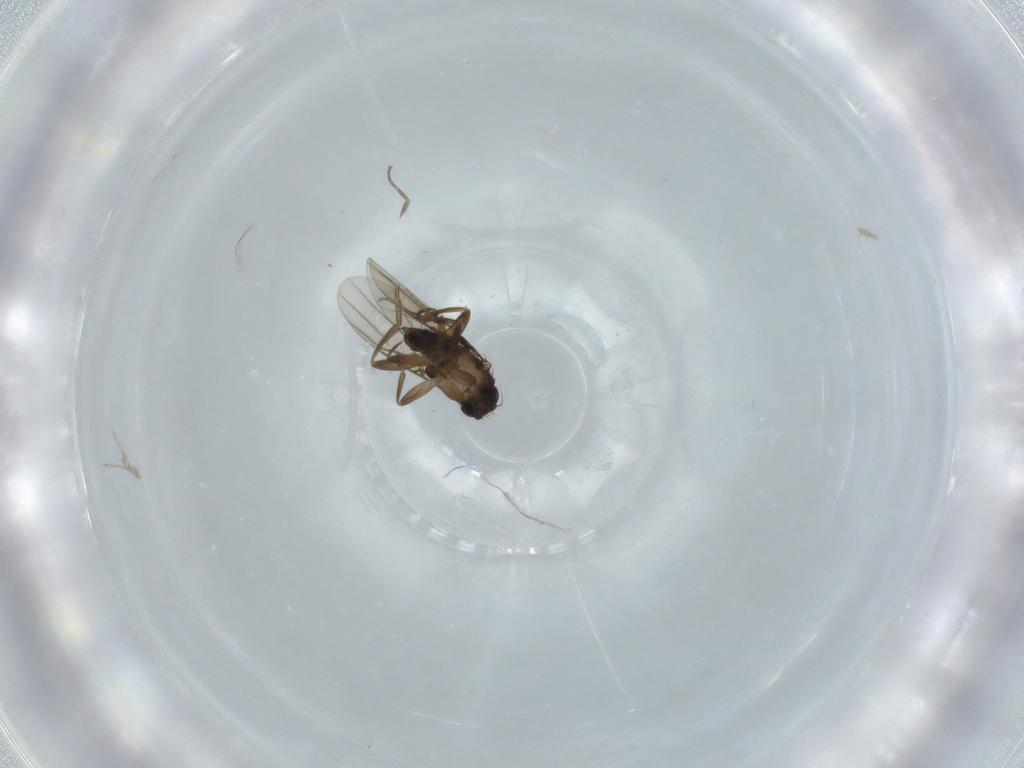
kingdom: Animalia
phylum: Arthropoda
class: Insecta
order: Diptera
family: Phoridae
